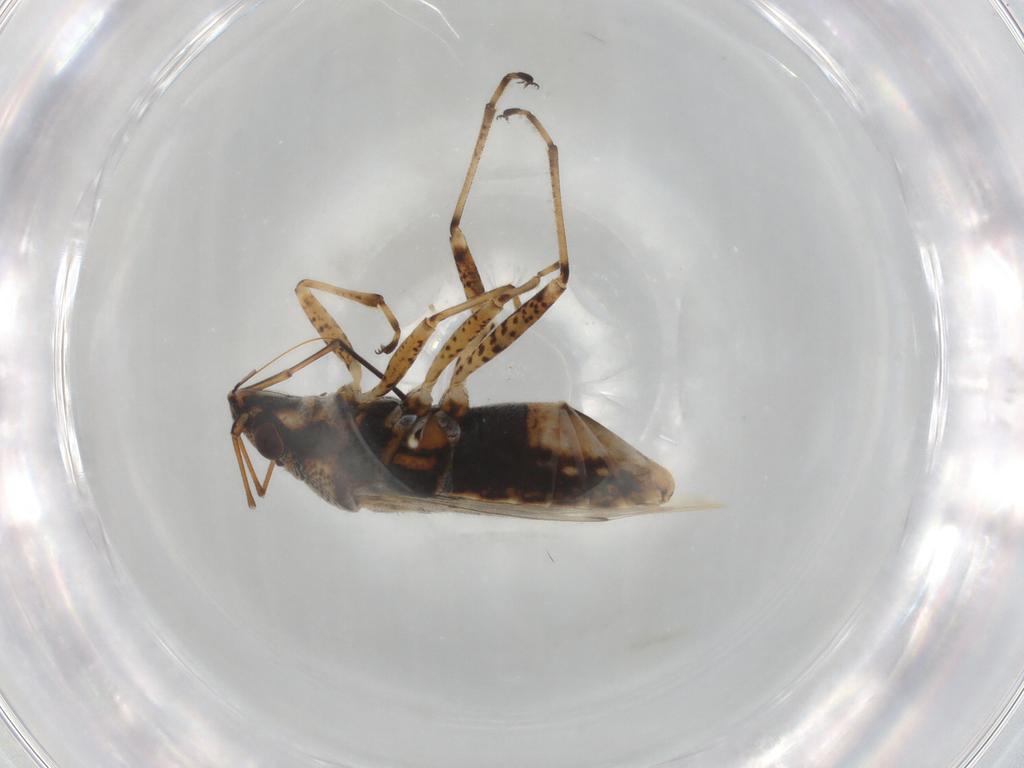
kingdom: Animalia
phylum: Arthropoda
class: Insecta
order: Hemiptera
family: Lygaeidae
